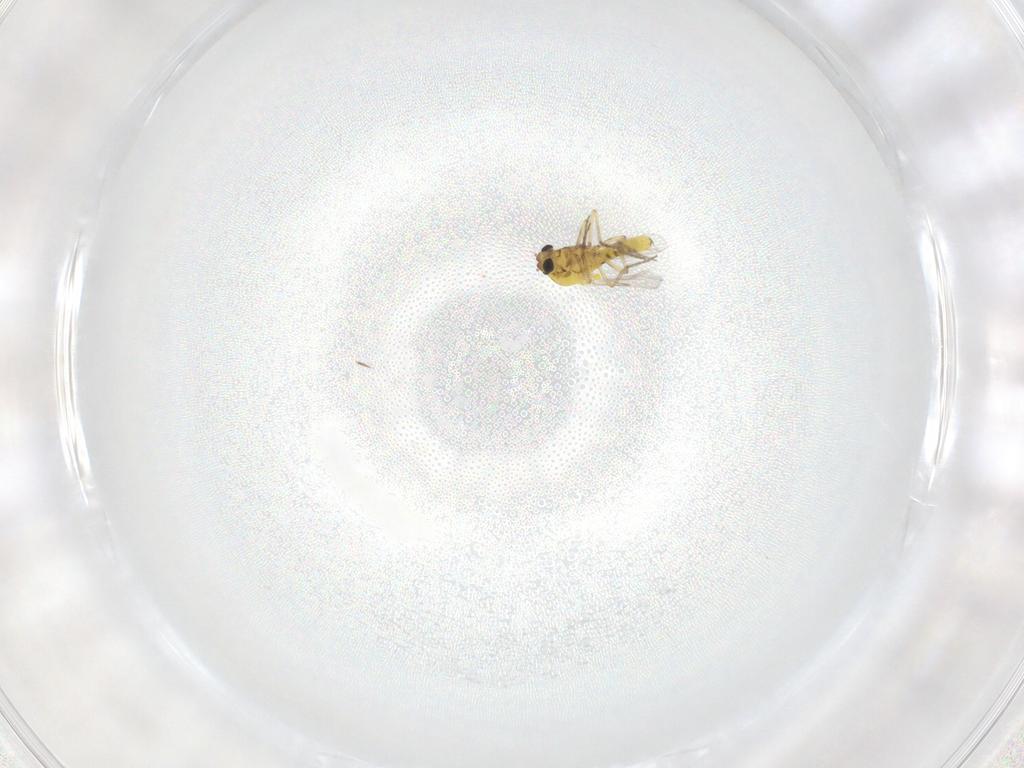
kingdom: Animalia
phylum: Arthropoda
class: Insecta
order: Diptera
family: Ceratopogonidae
